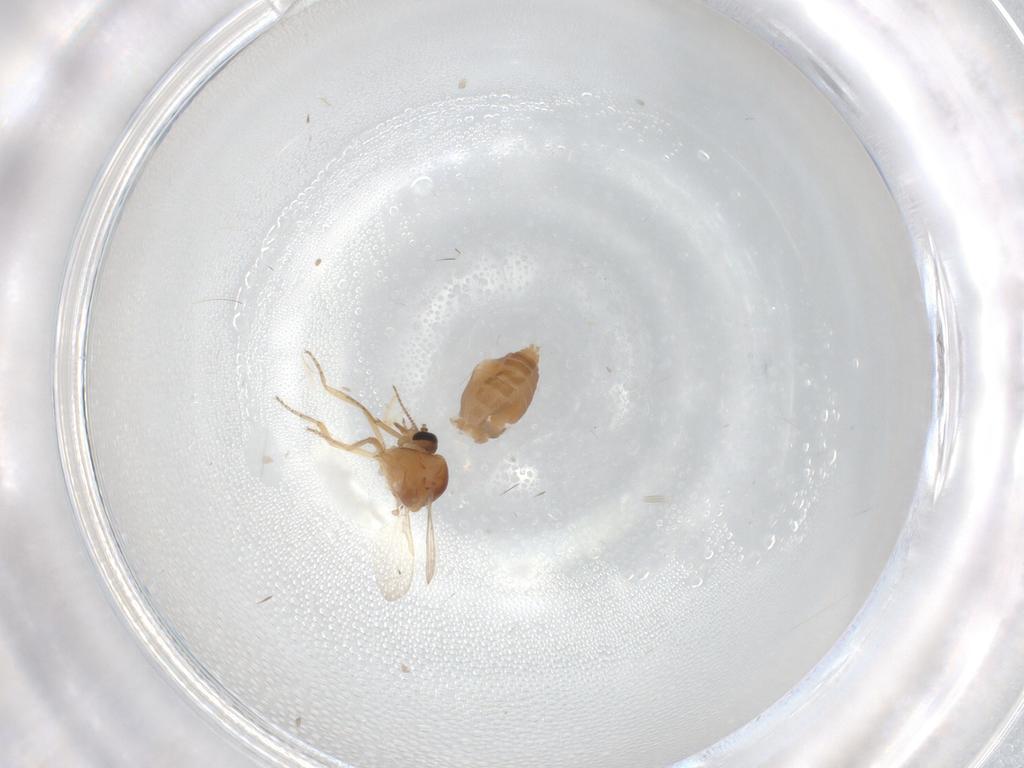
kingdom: Animalia
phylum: Arthropoda
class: Insecta
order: Diptera
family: Ceratopogonidae
